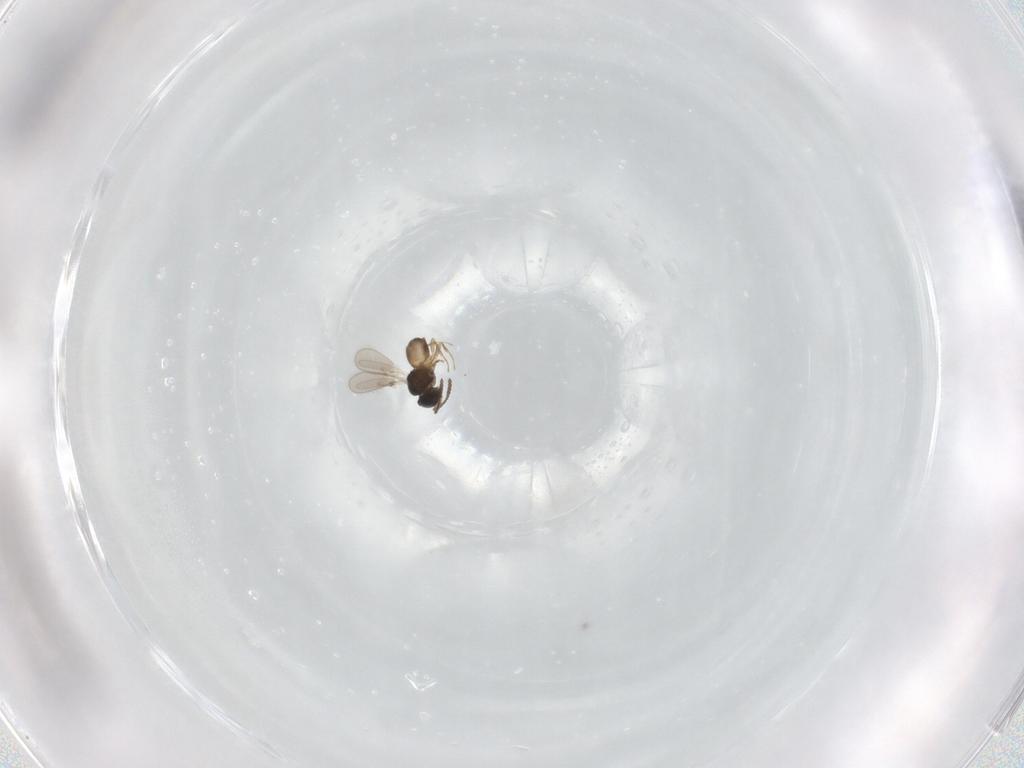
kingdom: Animalia
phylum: Arthropoda
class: Insecta
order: Hymenoptera
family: Scelionidae
